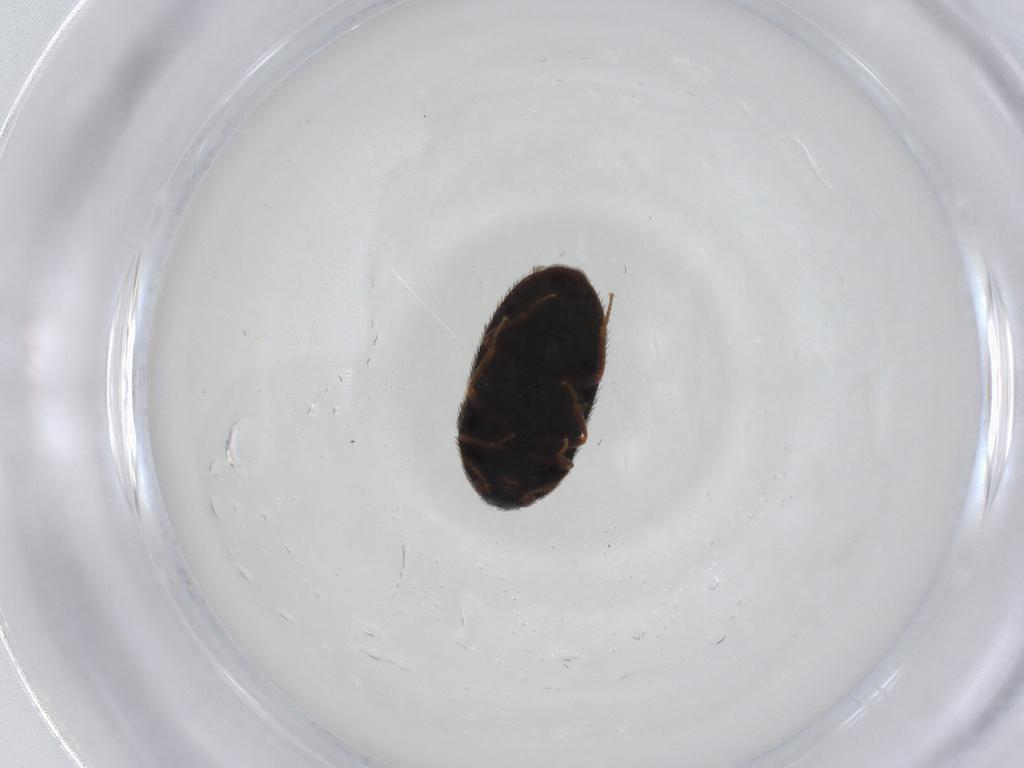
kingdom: Animalia
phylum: Arthropoda
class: Insecta
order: Coleoptera
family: Dermestidae
